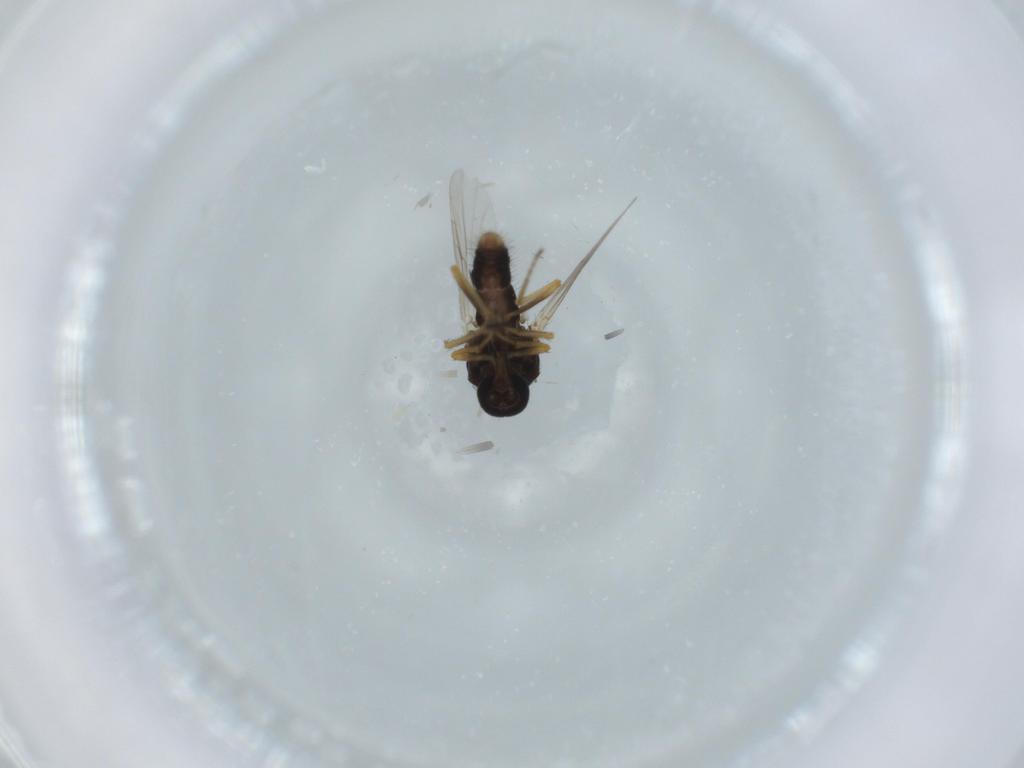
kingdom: Animalia
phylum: Arthropoda
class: Insecta
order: Diptera
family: Ceratopogonidae
